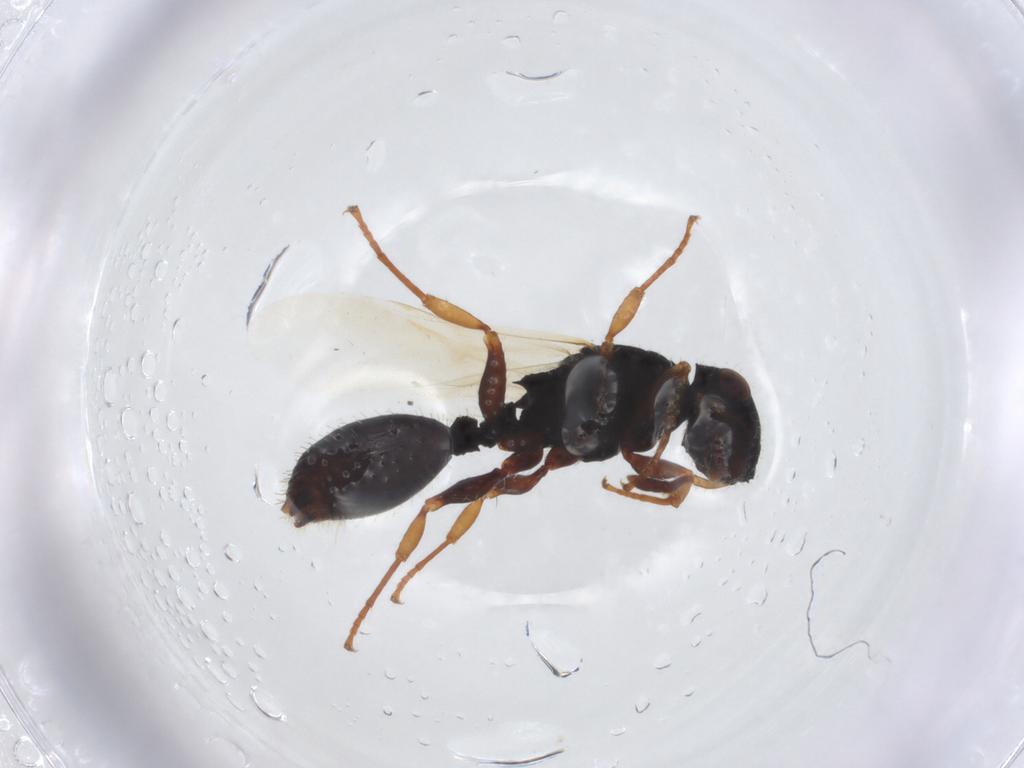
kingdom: Animalia
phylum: Arthropoda
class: Insecta
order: Hymenoptera
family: Formicidae
